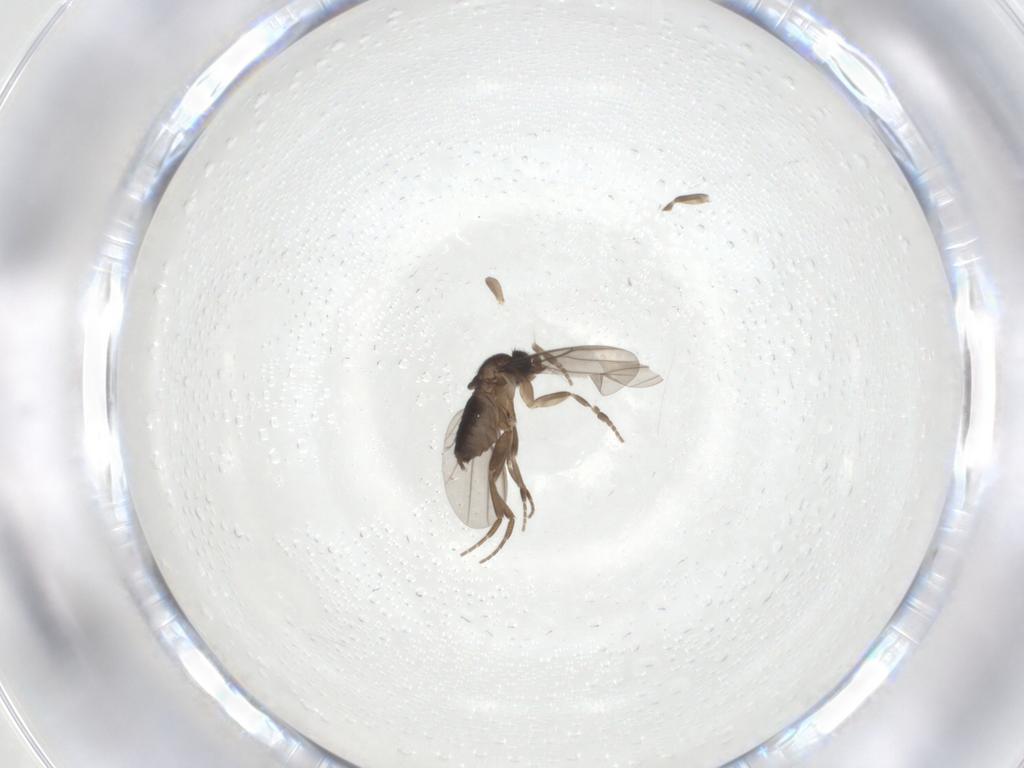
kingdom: Animalia
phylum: Arthropoda
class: Insecta
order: Diptera
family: Phoridae
